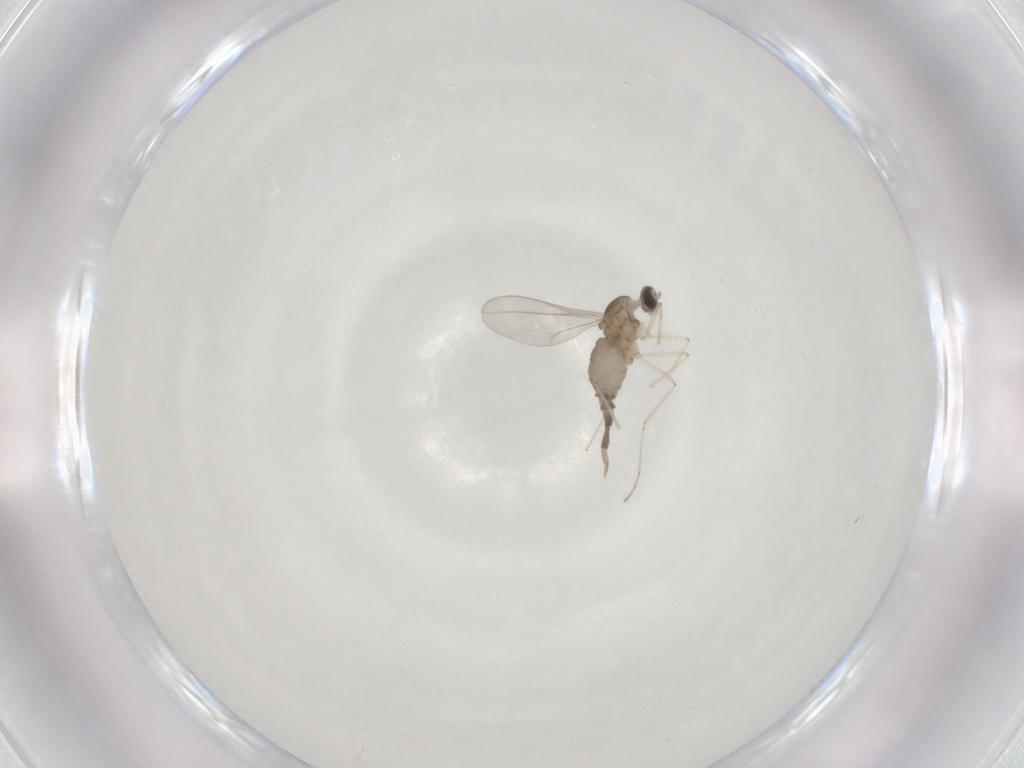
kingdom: Animalia
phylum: Arthropoda
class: Insecta
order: Diptera
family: Cecidomyiidae
